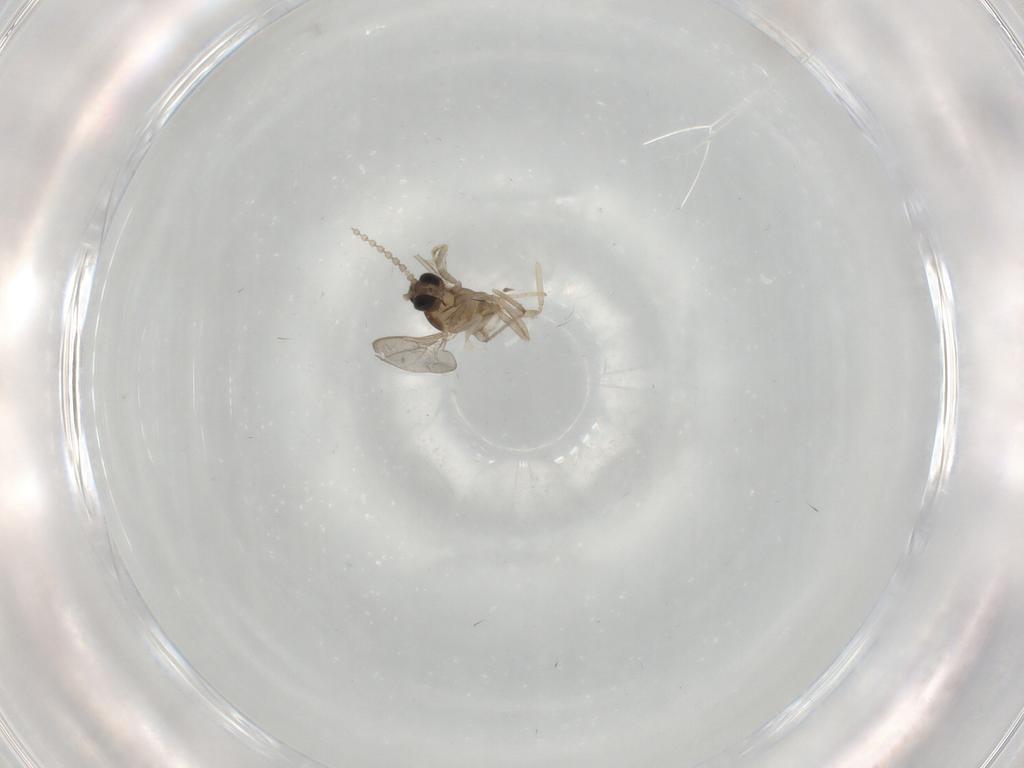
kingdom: Animalia
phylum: Arthropoda
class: Insecta
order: Diptera
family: Cecidomyiidae
